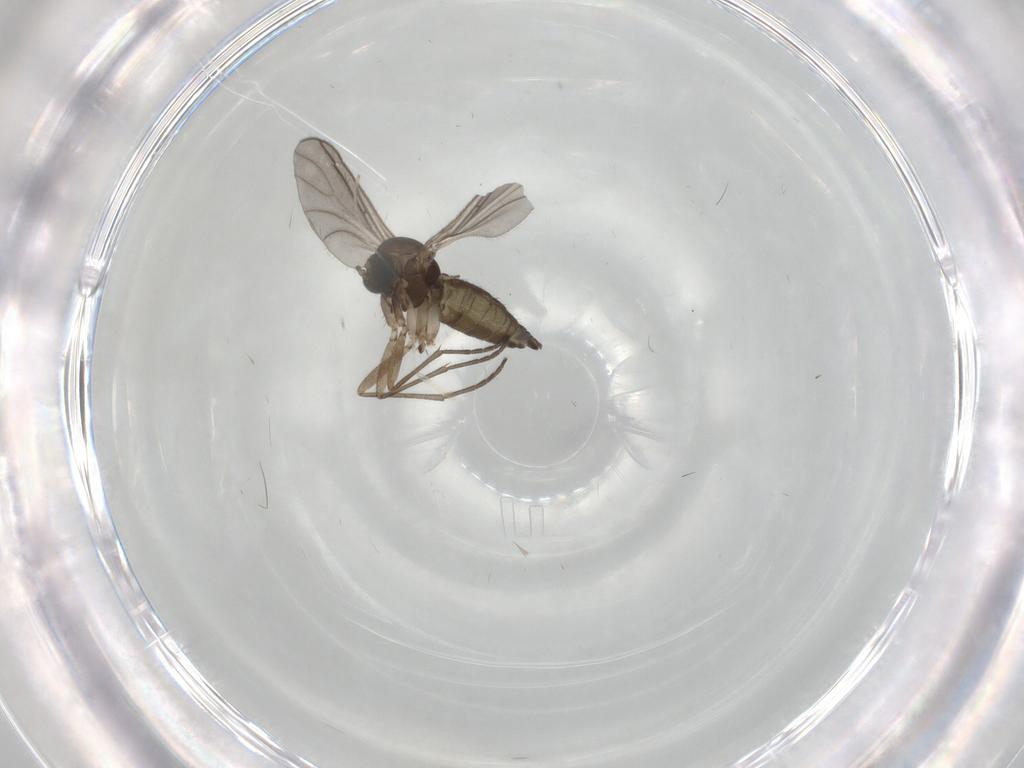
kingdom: Animalia
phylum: Arthropoda
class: Insecta
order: Diptera
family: Sciaridae
